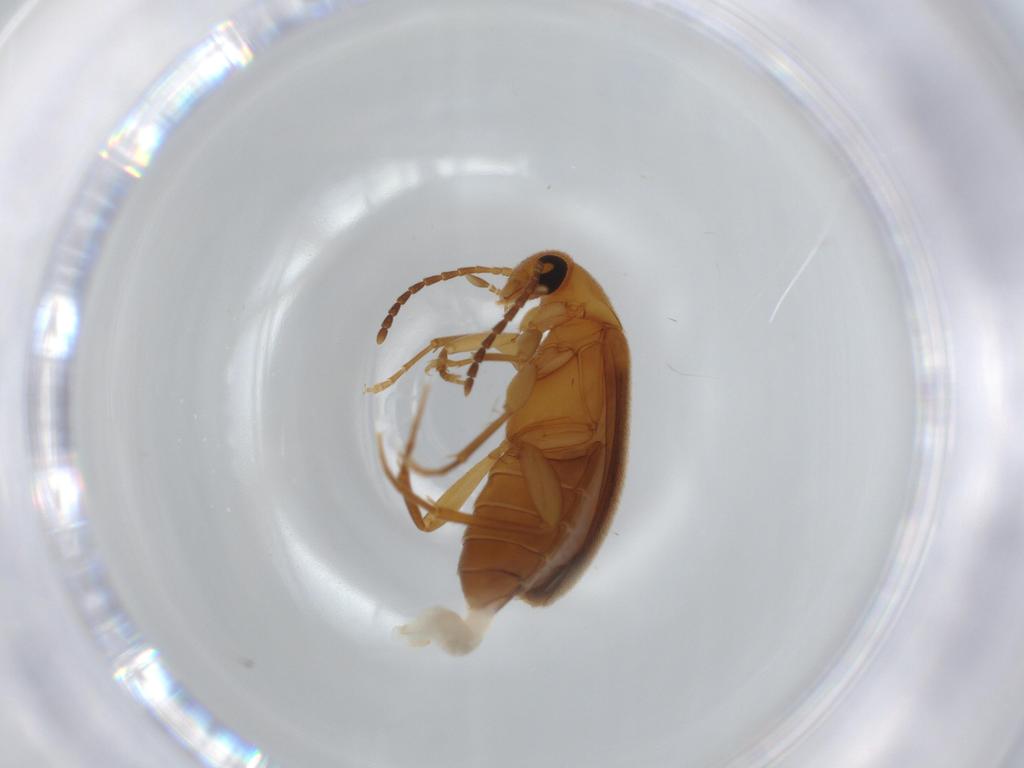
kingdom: Animalia
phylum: Arthropoda
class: Insecta
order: Coleoptera
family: Scraptiidae
